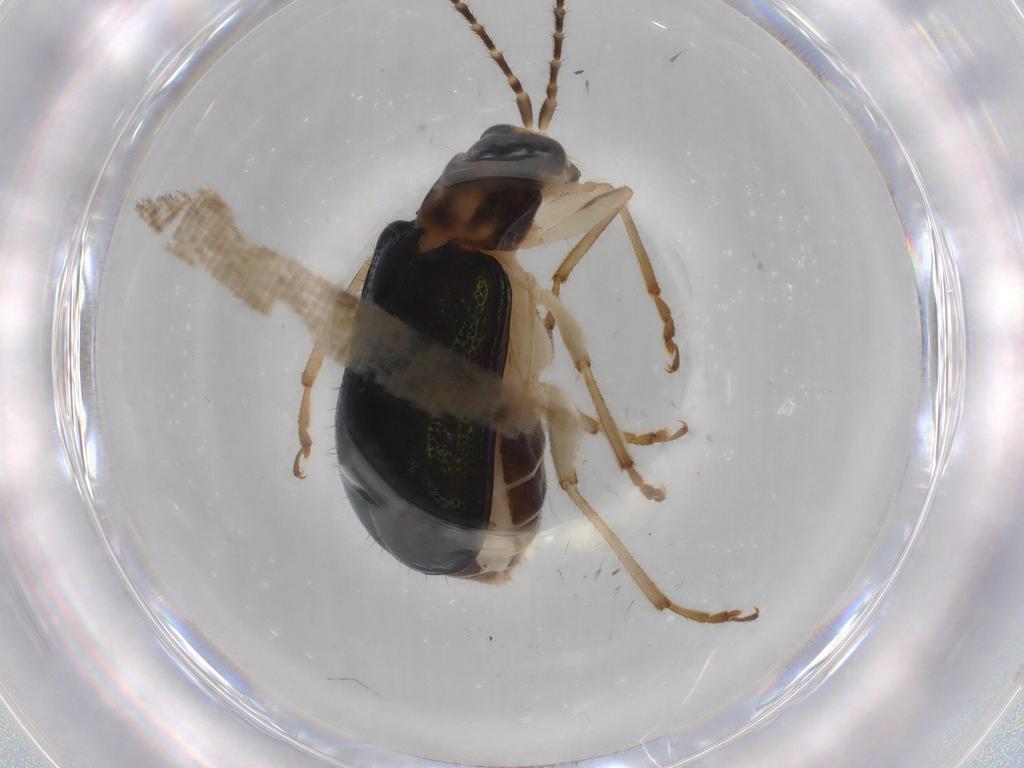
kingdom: Animalia
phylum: Arthropoda
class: Insecta
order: Coleoptera
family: Chrysomelidae
